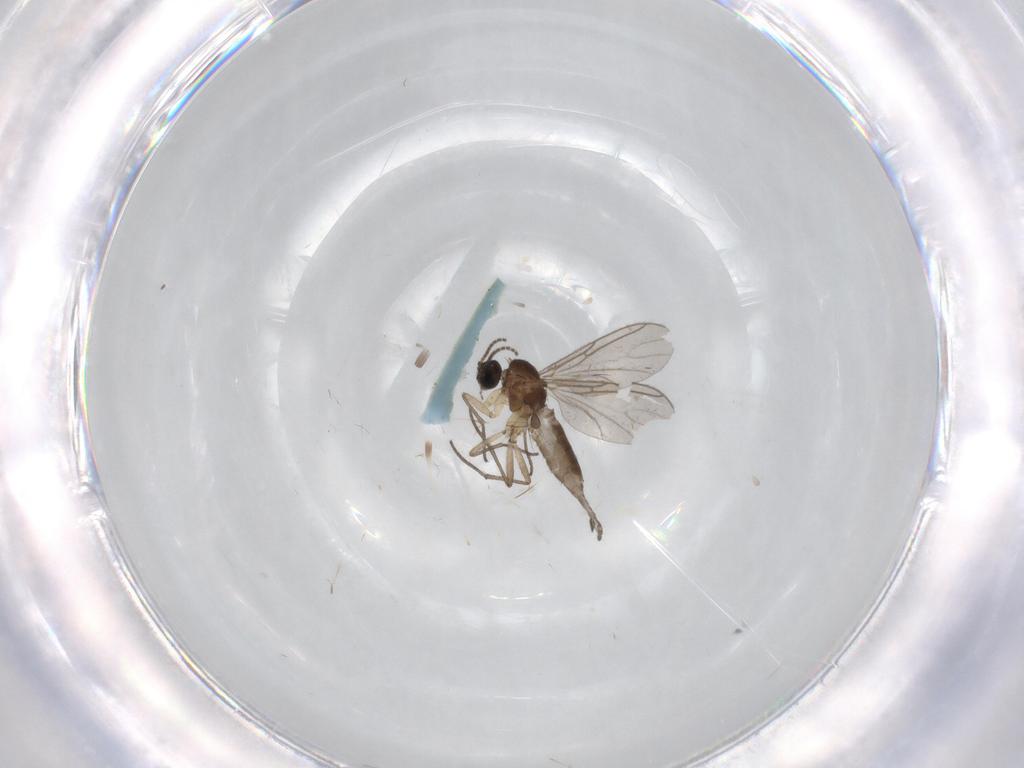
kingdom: Animalia
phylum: Arthropoda
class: Insecta
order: Diptera
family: Sciaridae
